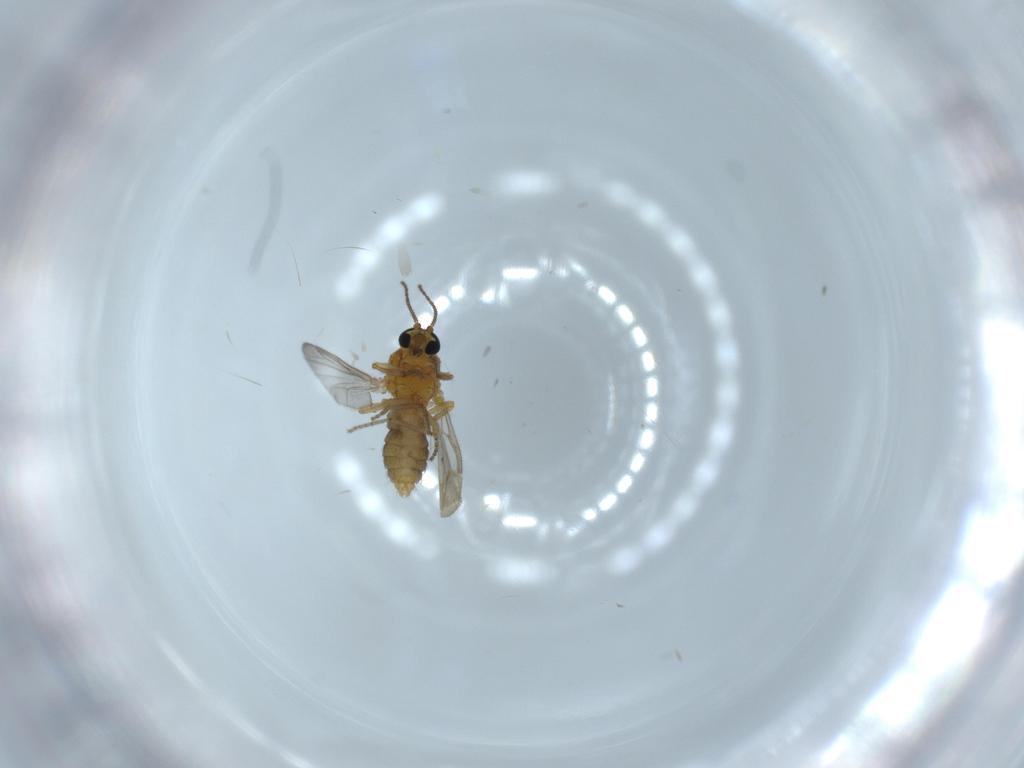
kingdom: Animalia
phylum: Arthropoda
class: Insecta
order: Diptera
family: Ceratopogonidae
